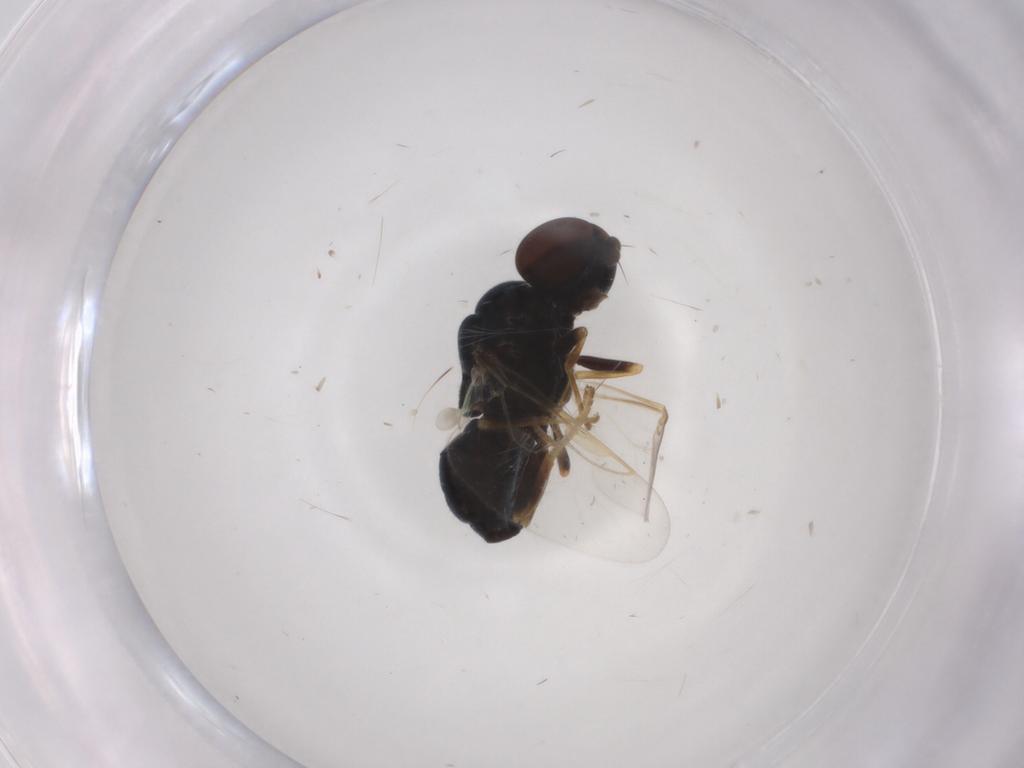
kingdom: Animalia
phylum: Arthropoda
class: Insecta
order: Diptera
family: Stratiomyidae
